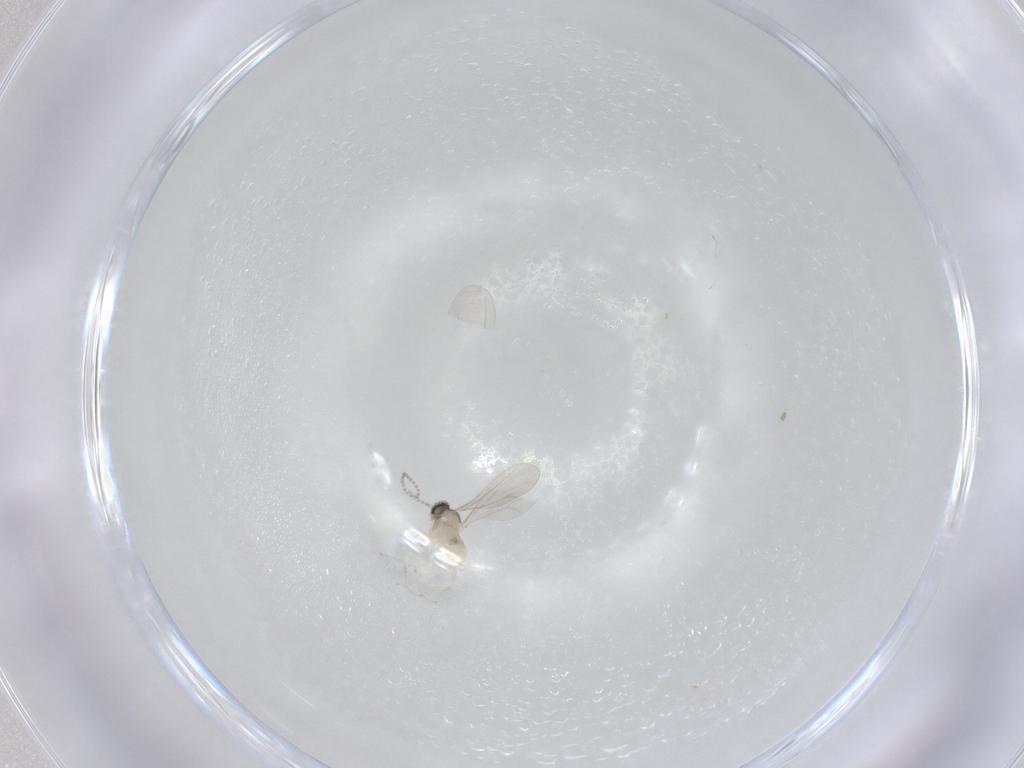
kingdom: Animalia
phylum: Arthropoda
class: Insecta
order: Diptera
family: Cecidomyiidae
